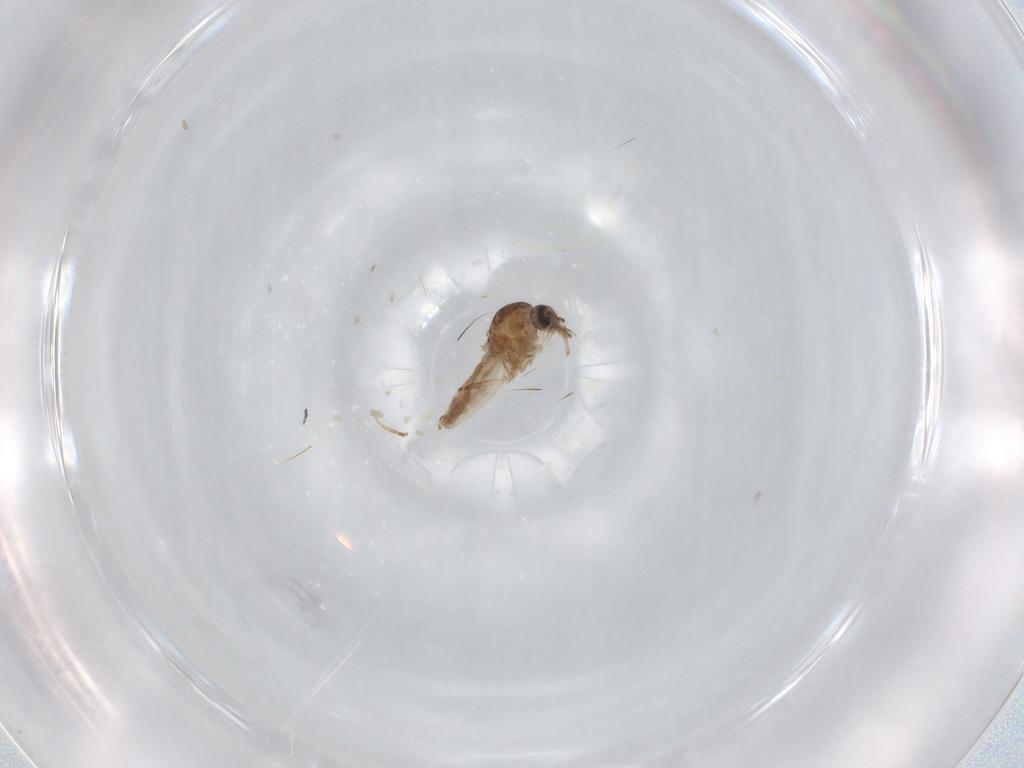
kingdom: Animalia
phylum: Arthropoda
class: Insecta
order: Diptera
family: Ceratopogonidae
